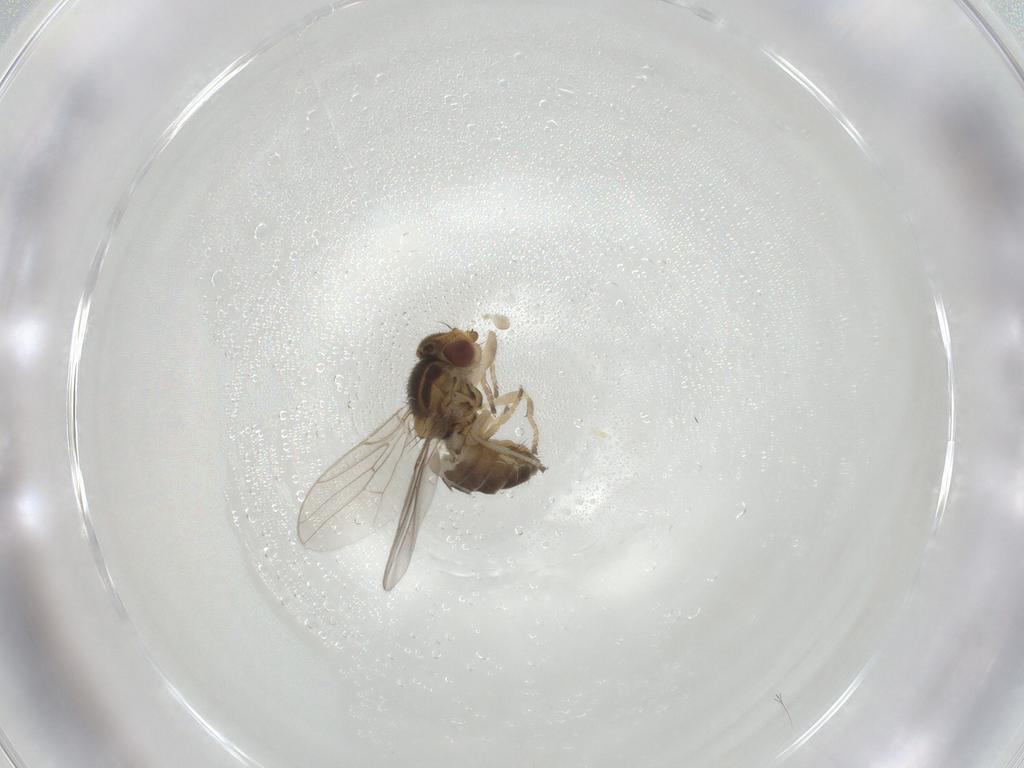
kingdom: Animalia
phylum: Arthropoda
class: Insecta
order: Diptera
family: Chloropidae
